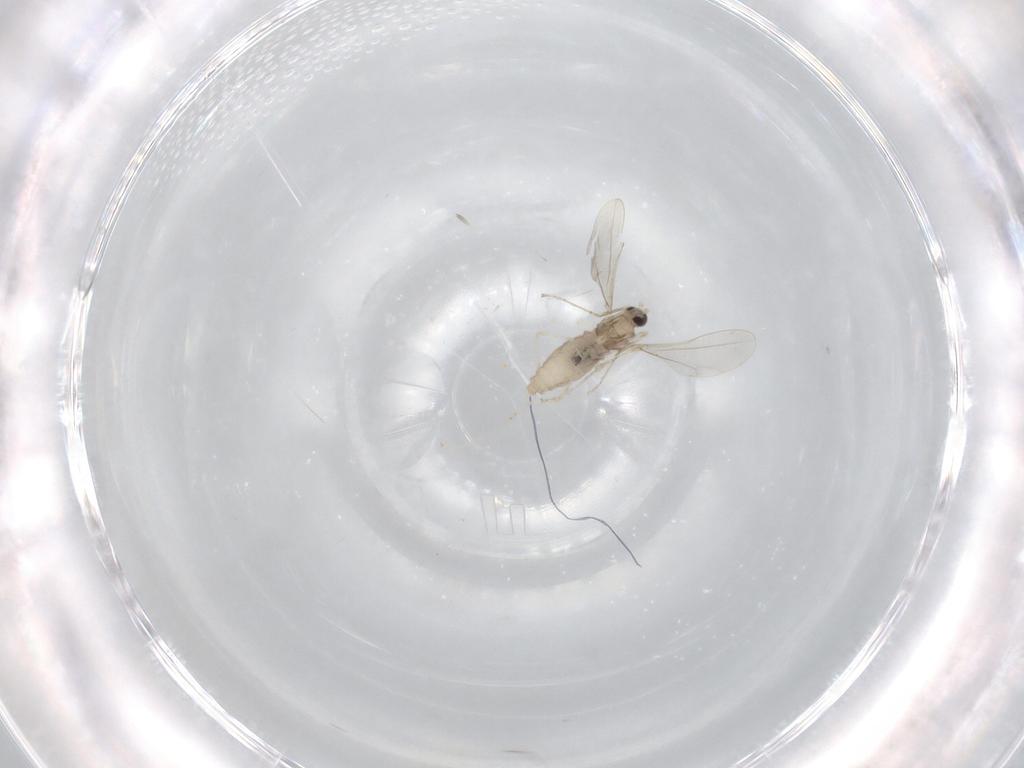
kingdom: Animalia
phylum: Arthropoda
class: Insecta
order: Diptera
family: Cecidomyiidae
